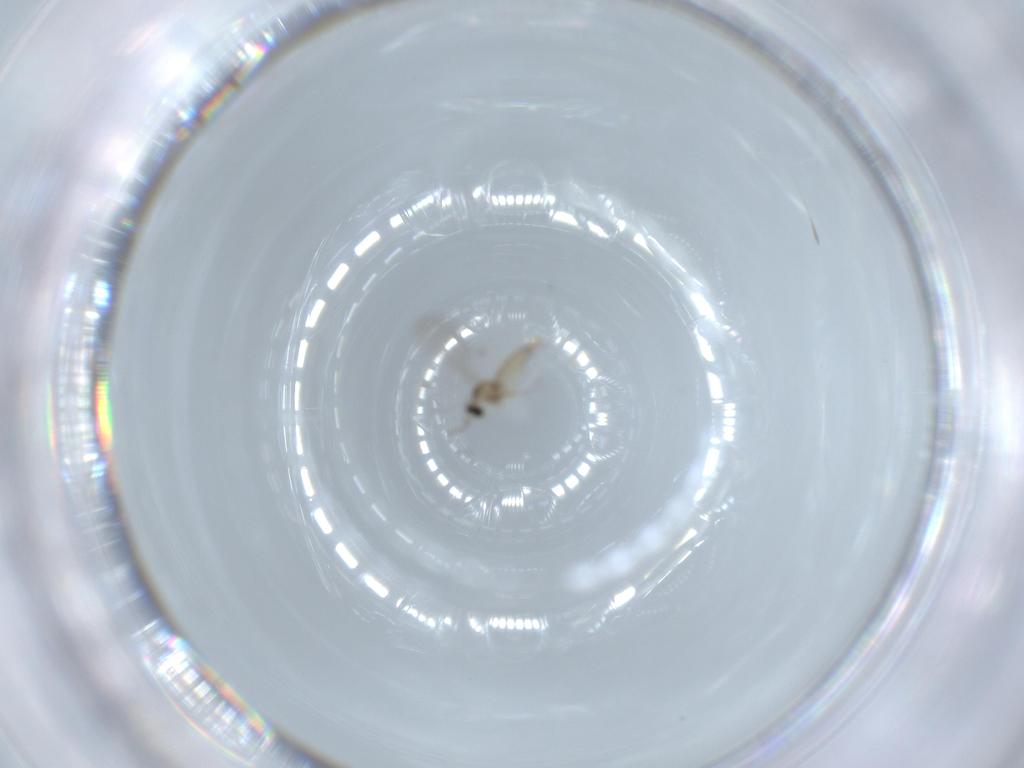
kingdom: Animalia
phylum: Arthropoda
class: Insecta
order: Diptera
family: Cecidomyiidae
